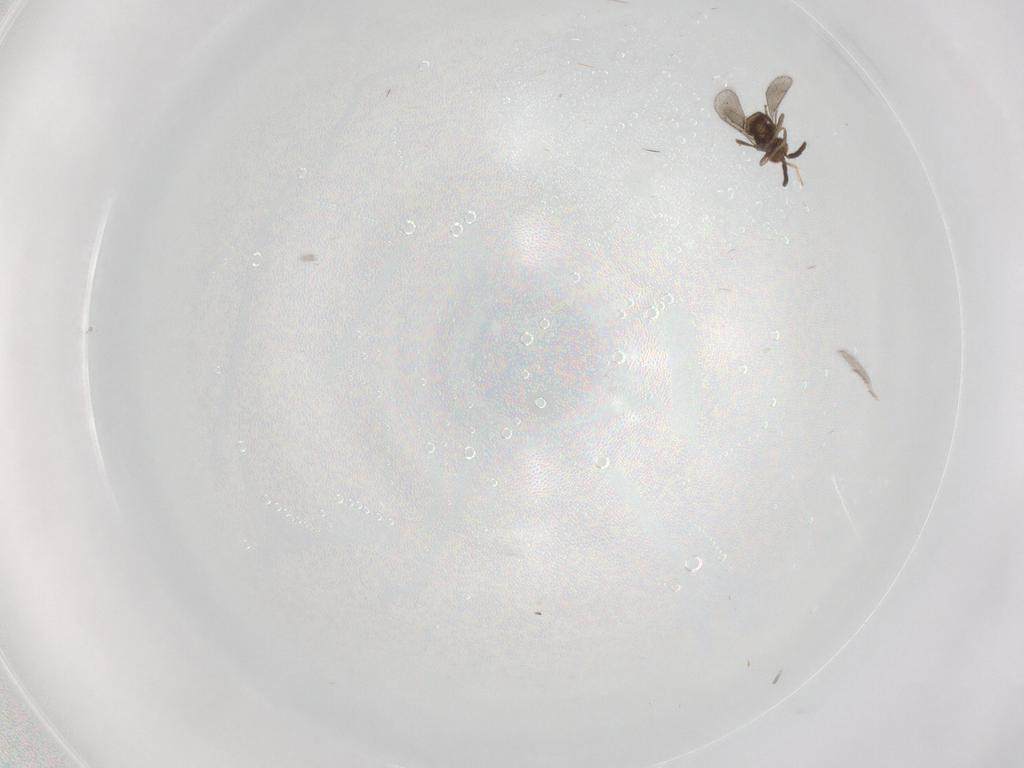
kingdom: Animalia
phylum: Arthropoda
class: Insecta
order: Hymenoptera
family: Aphelinidae
